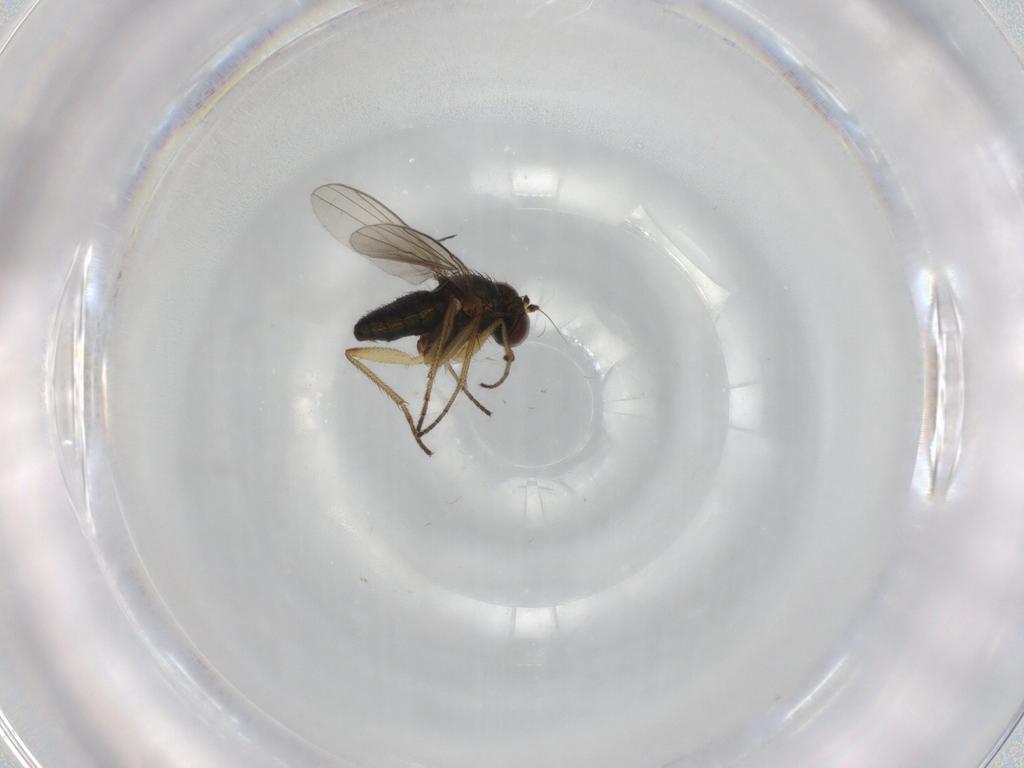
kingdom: Animalia
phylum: Arthropoda
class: Insecta
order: Diptera
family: Dolichopodidae
